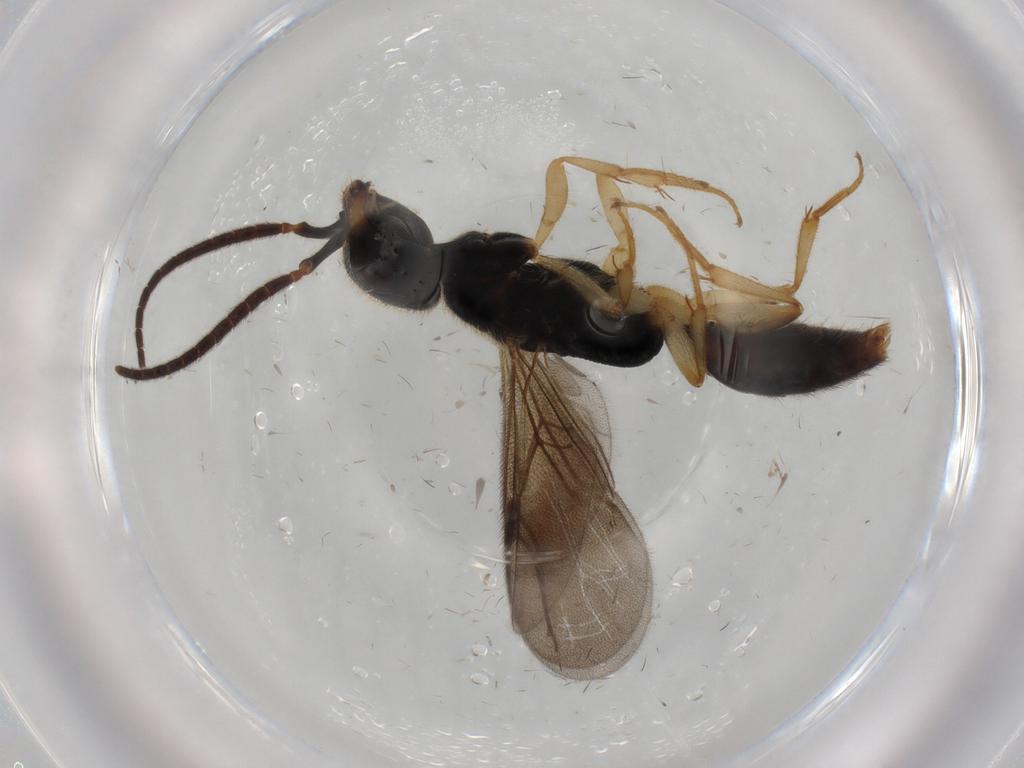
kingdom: Animalia
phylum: Arthropoda
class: Insecta
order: Hymenoptera
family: Bethylidae
